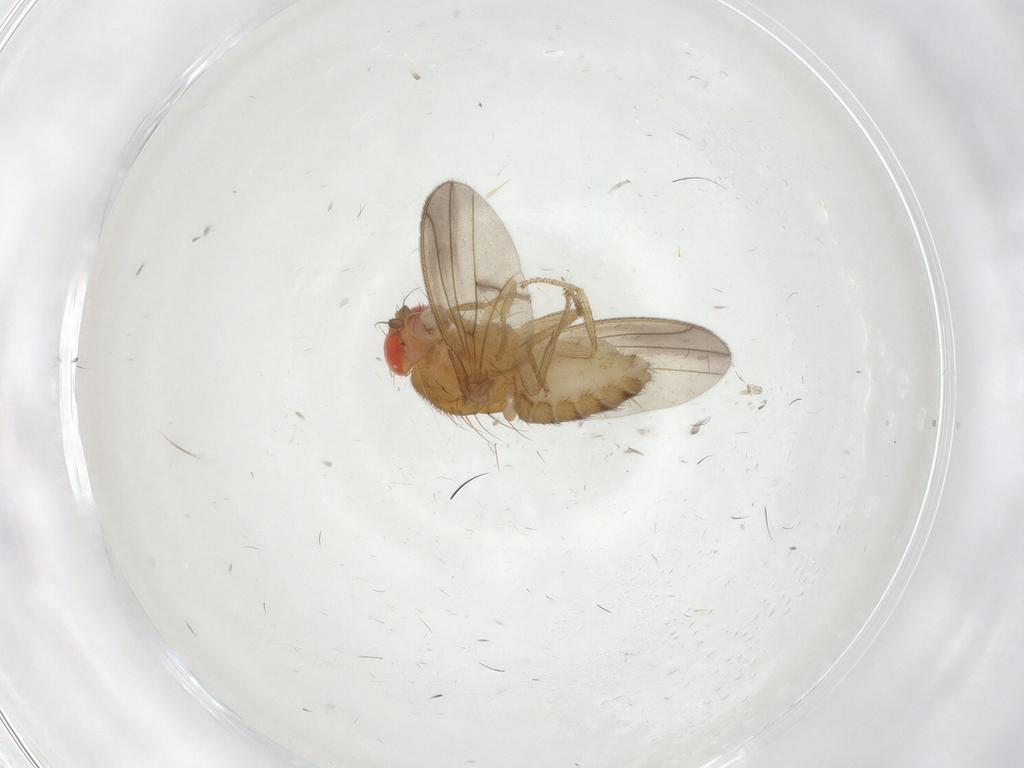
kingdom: Animalia
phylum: Arthropoda
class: Insecta
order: Diptera
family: Drosophilidae
